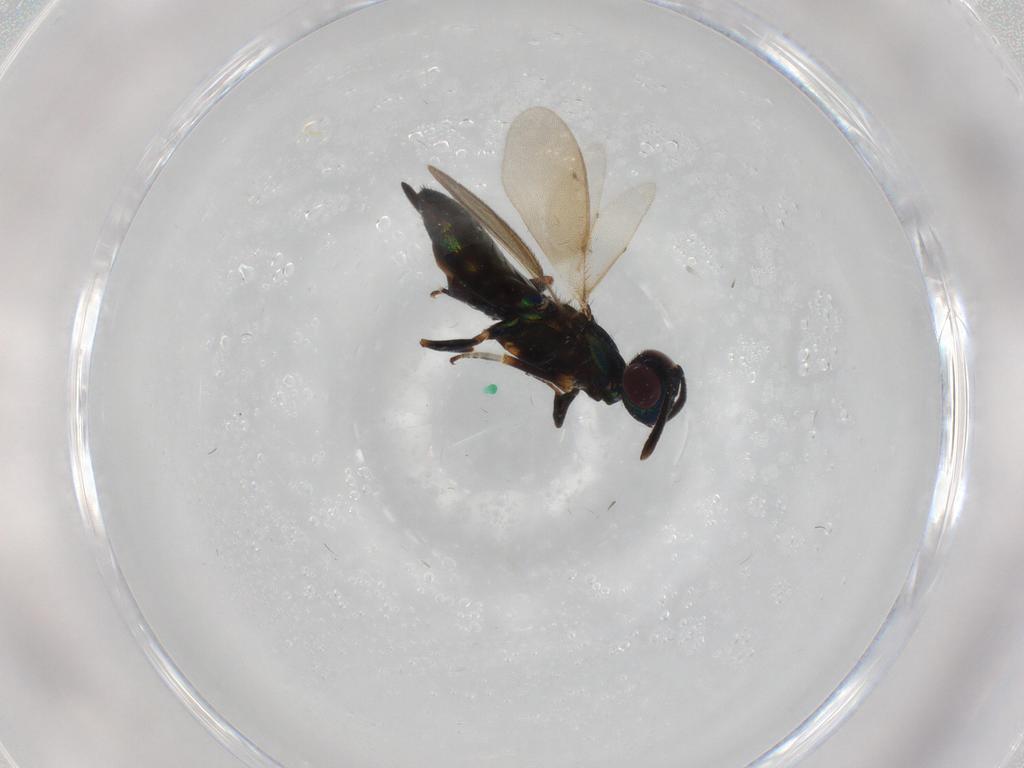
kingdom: Animalia
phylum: Arthropoda
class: Insecta
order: Hymenoptera
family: Eupelmidae
